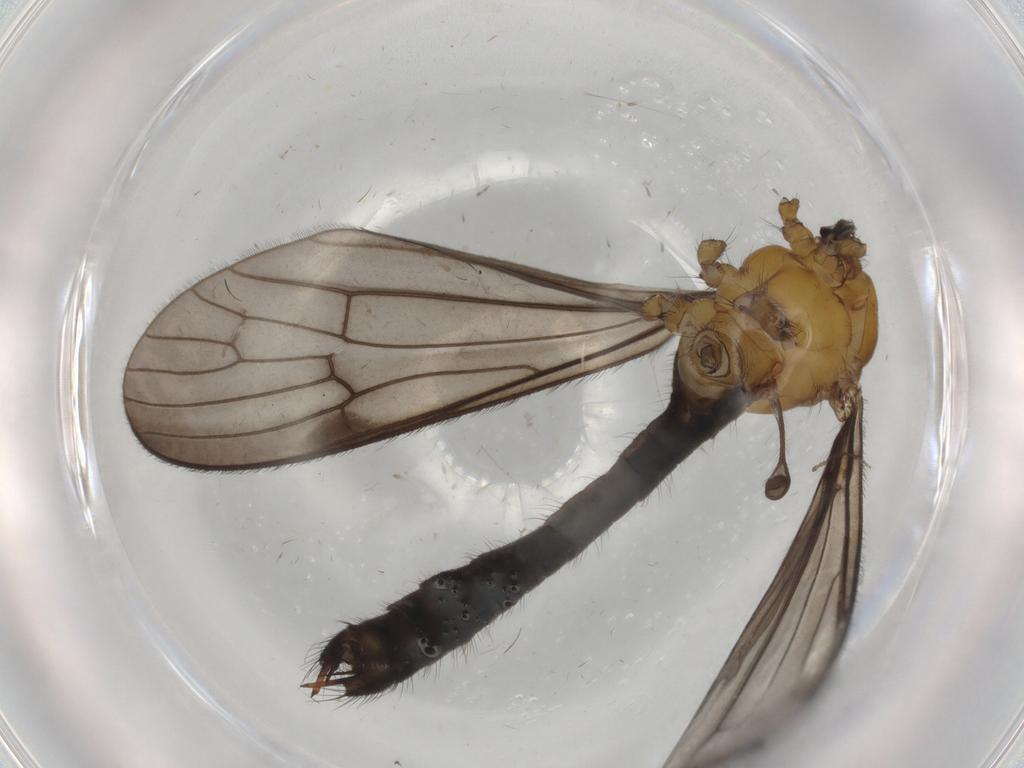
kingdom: Animalia
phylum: Arthropoda
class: Insecta
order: Diptera
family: Limoniidae
